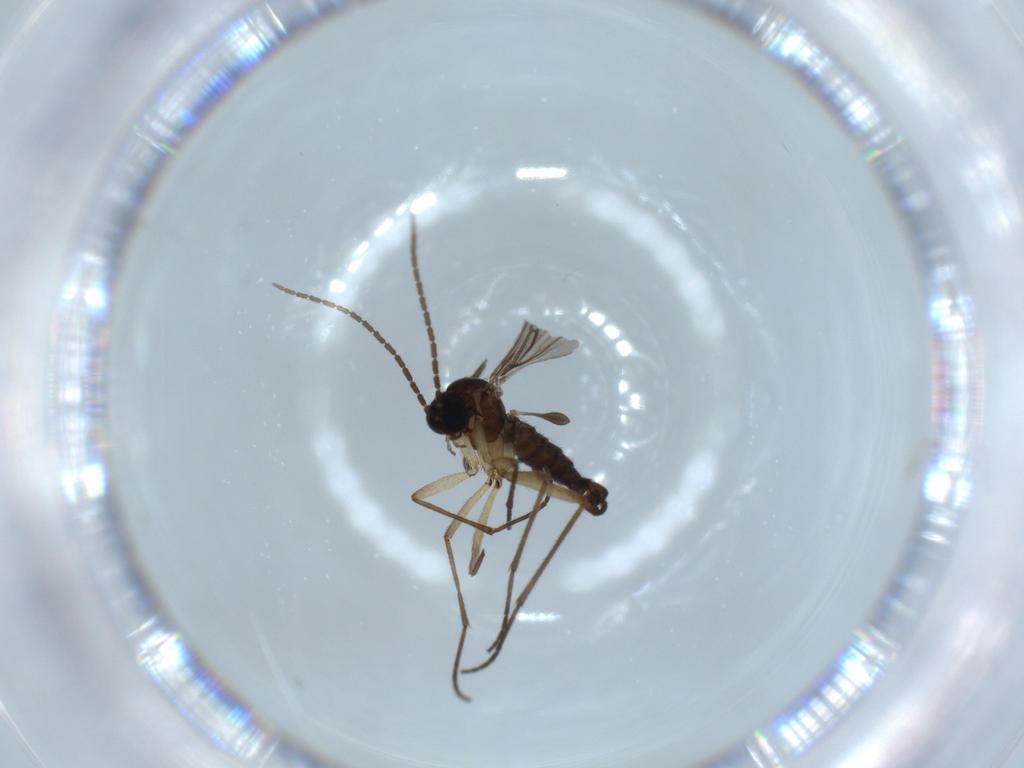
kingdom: Animalia
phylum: Arthropoda
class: Insecta
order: Diptera
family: Sciaridae
